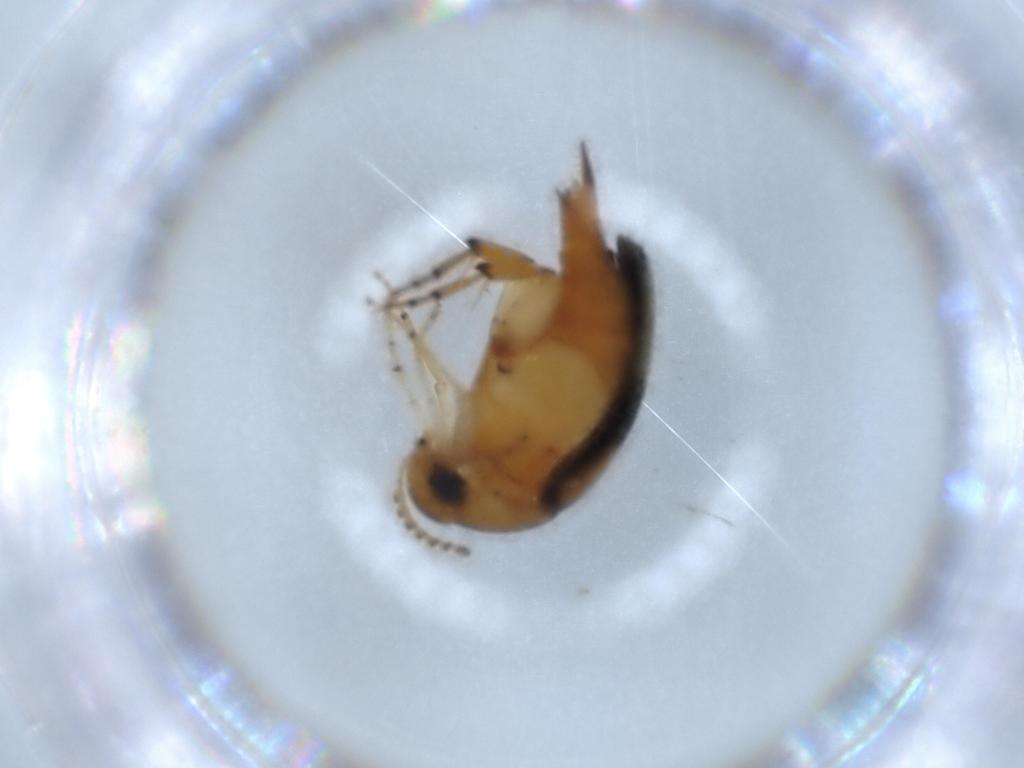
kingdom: Animalia
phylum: Arthropoda
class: Insecta
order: Coleoptera
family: Mordellidae
